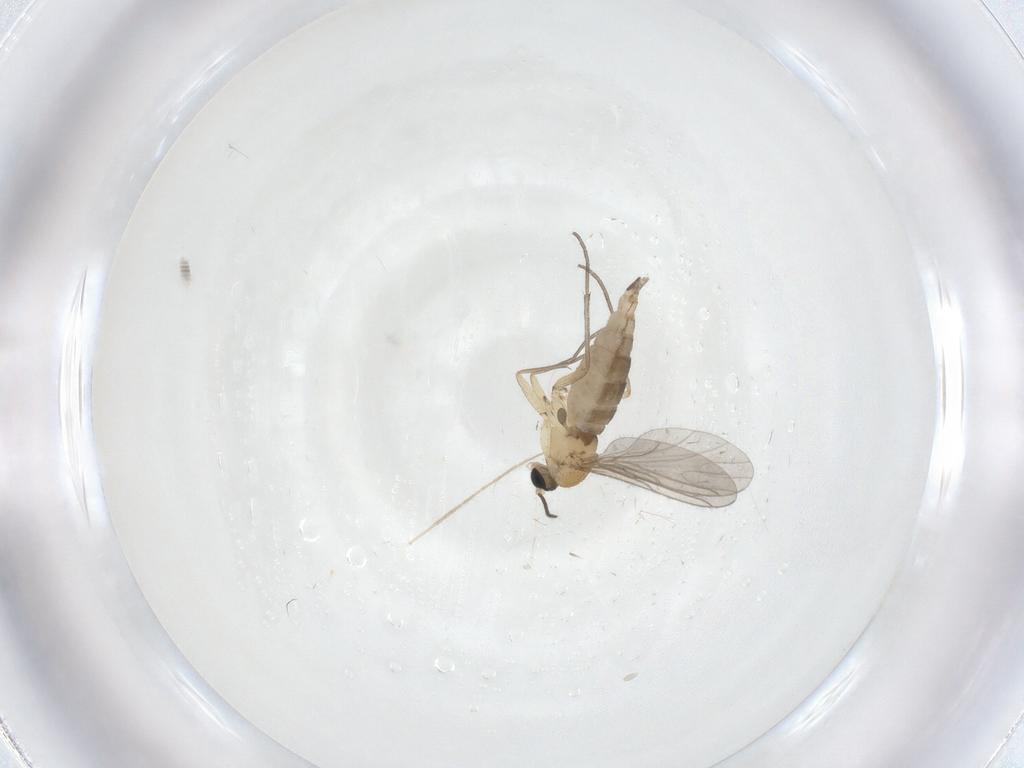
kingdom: Animalia
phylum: Arthropoda
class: Insecta
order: Diptera
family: Sciaridae
